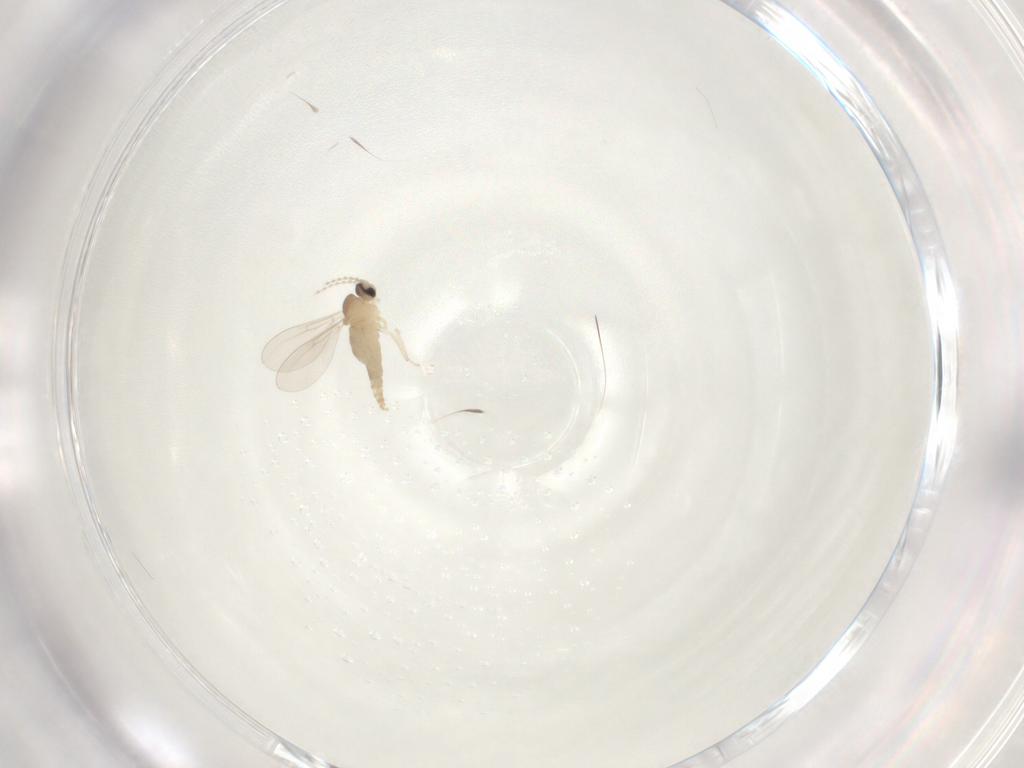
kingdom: Animalia
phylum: Arthropoda
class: Insecta
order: Diptera
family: Cecidomyiidae
